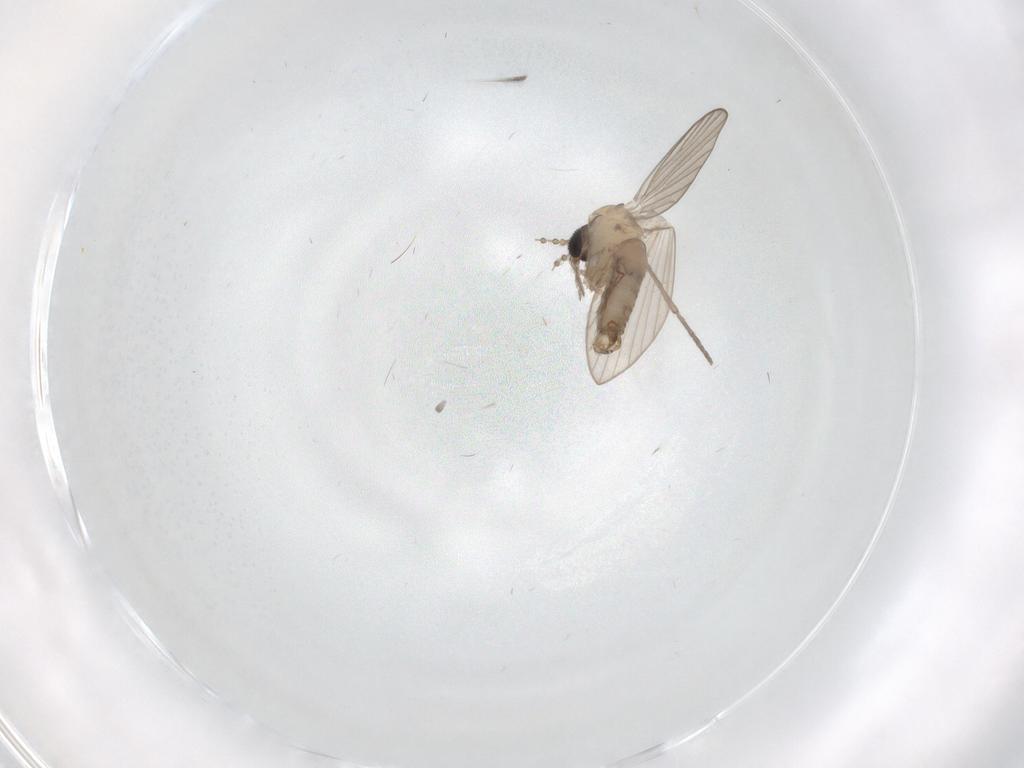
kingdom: Animalia
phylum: Arthropoda
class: Insecta
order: Diptera
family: Psychodidae
